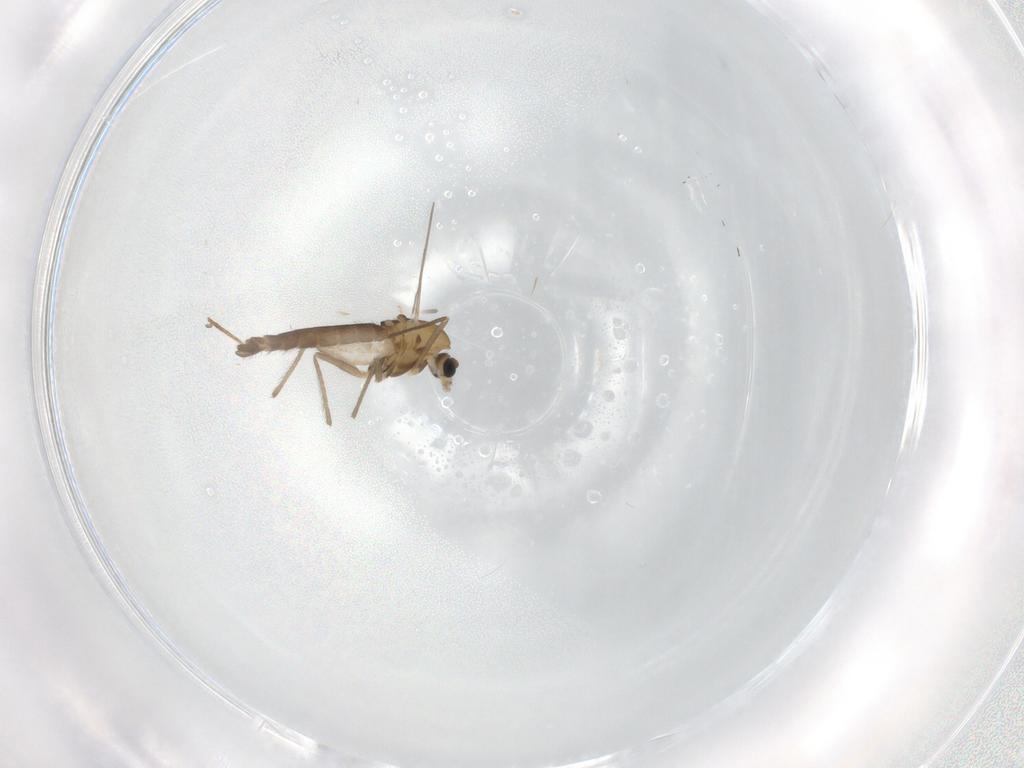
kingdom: Animalia
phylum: Arthropoda
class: Insecta
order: Diptera
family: Chironomidae
